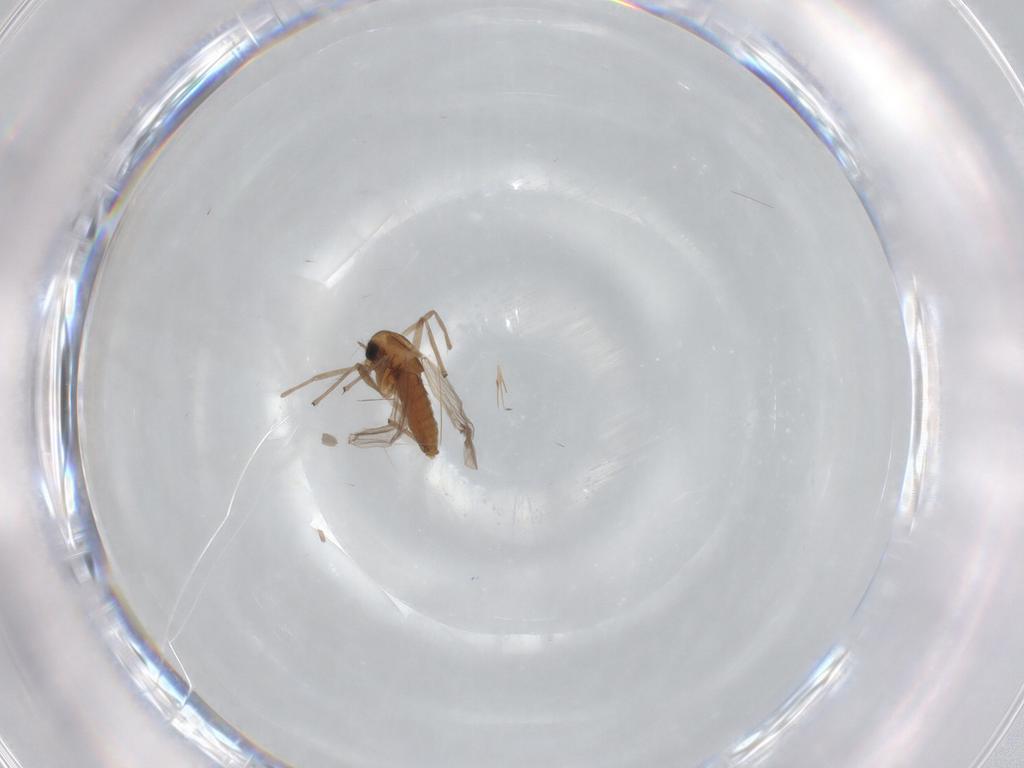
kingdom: Animalia
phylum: Arthropoda
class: Insecta
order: Diptera
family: Chironomidae
